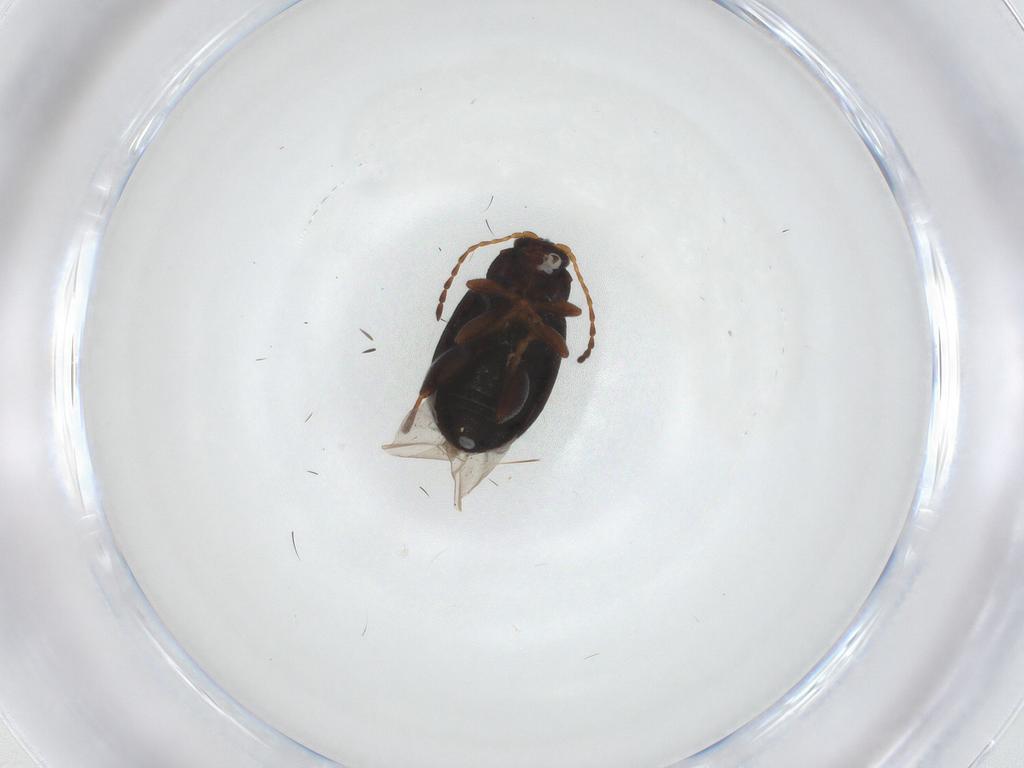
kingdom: Animalia
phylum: Arthropoda
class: Insecta
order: Coleoptera
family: Chrysomelidae
